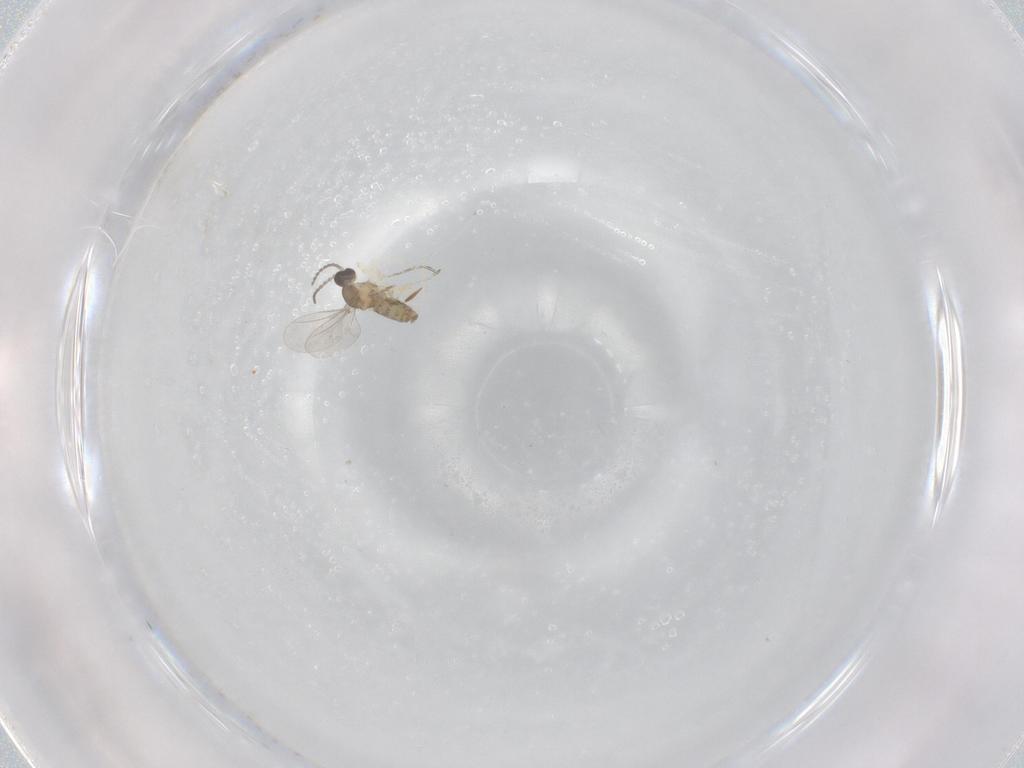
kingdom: Animalia
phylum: Arthropoda
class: Insecta
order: Diptera
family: Cecidomyiidae
